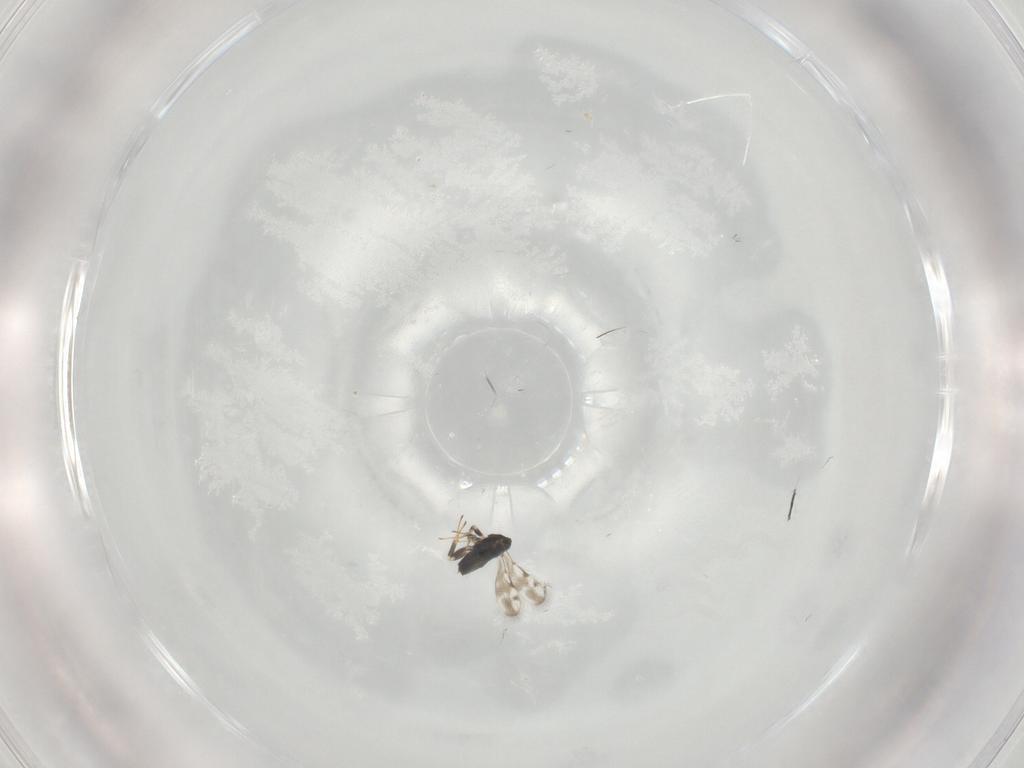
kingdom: Animalia
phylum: Arthropoda
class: Insecta
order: Hymenoptera
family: Azotidae
